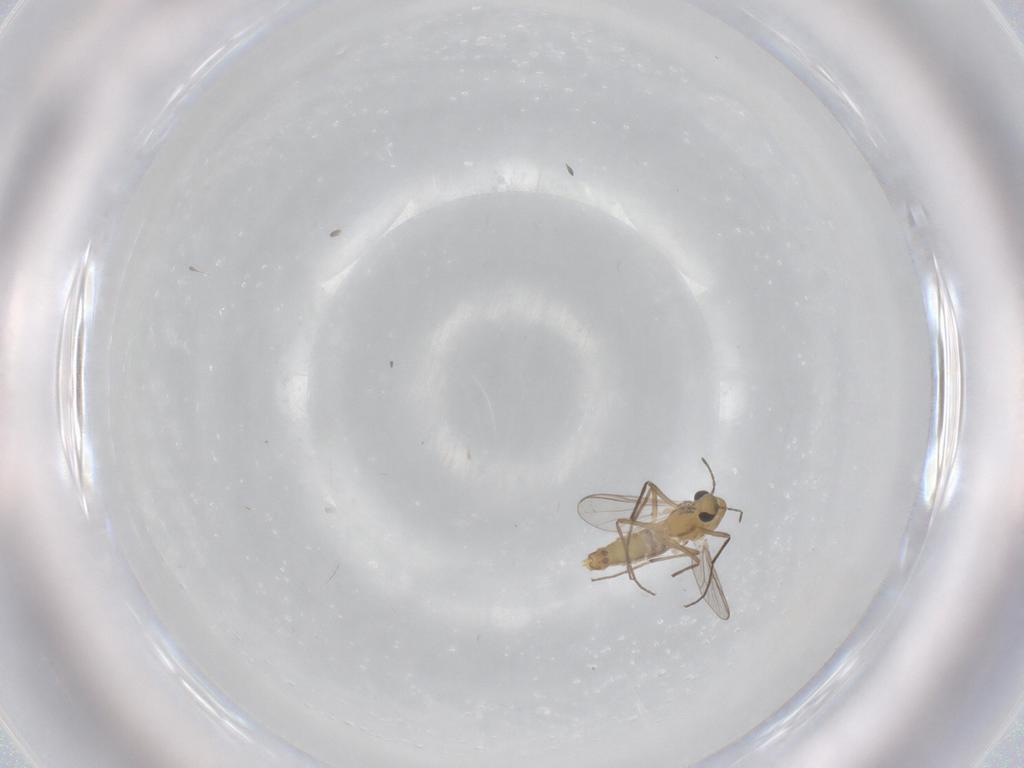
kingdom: Animalia
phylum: Arthropoda
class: Insecta
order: Diptera
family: Chironomidae
